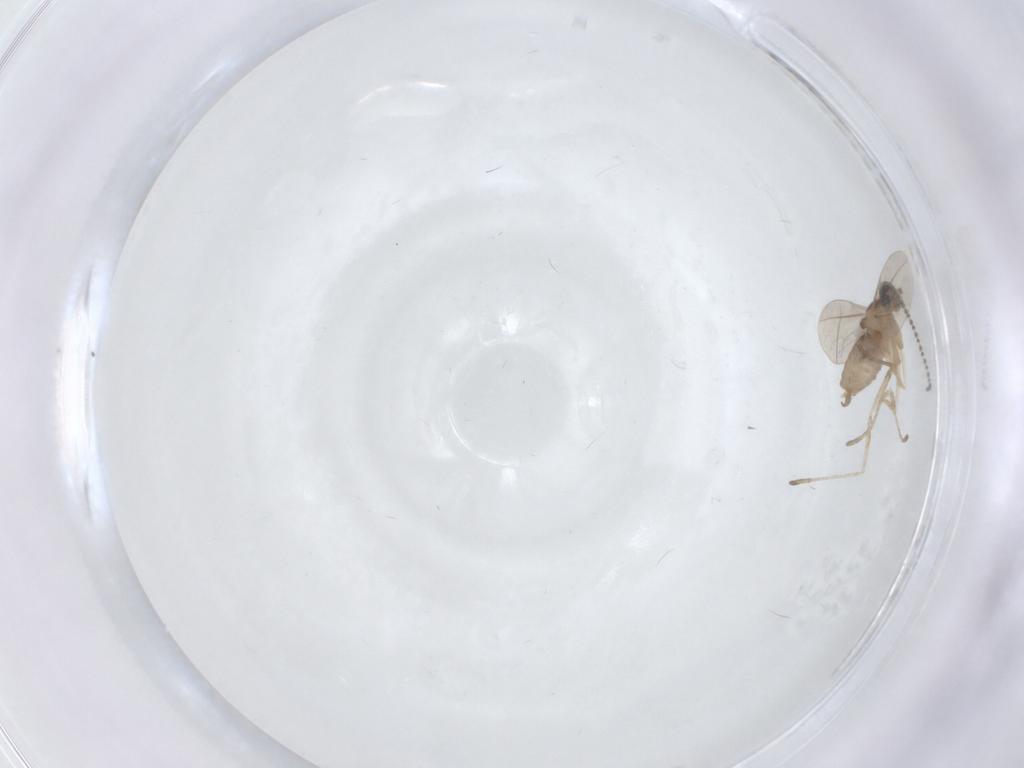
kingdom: Animalia
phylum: Arthropoda
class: Insecta
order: Diptera
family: Cecidomyiidae
